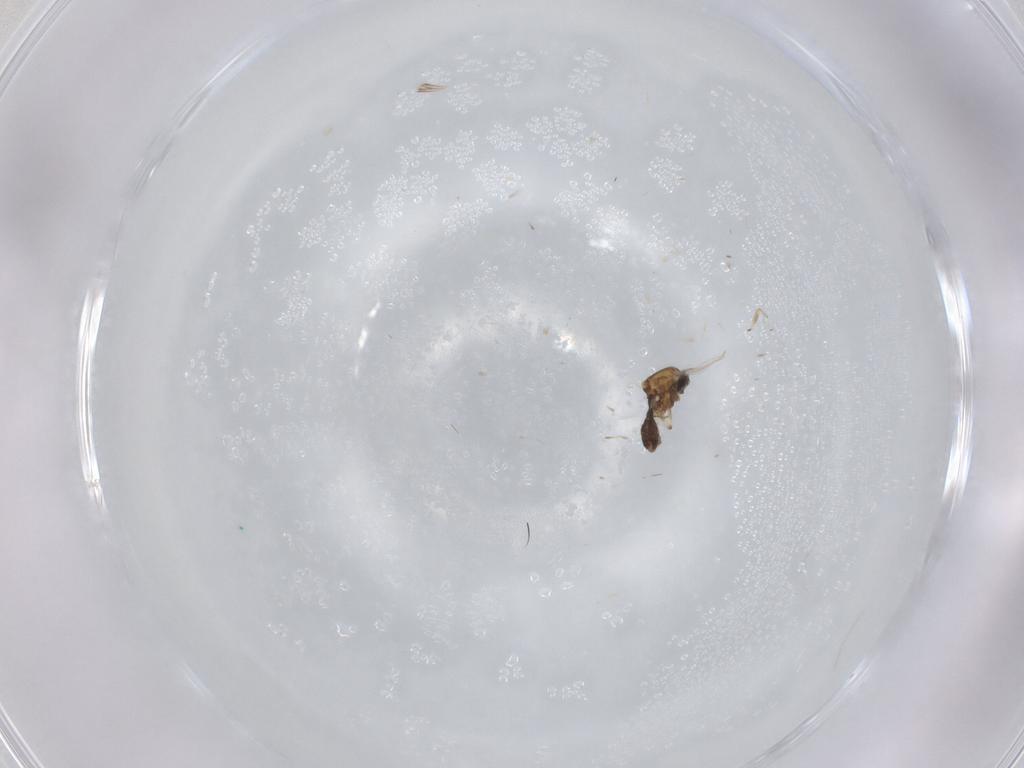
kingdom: Animalia
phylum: Arthropoda
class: Insecta
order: Diptera
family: Ceratopogonidae
